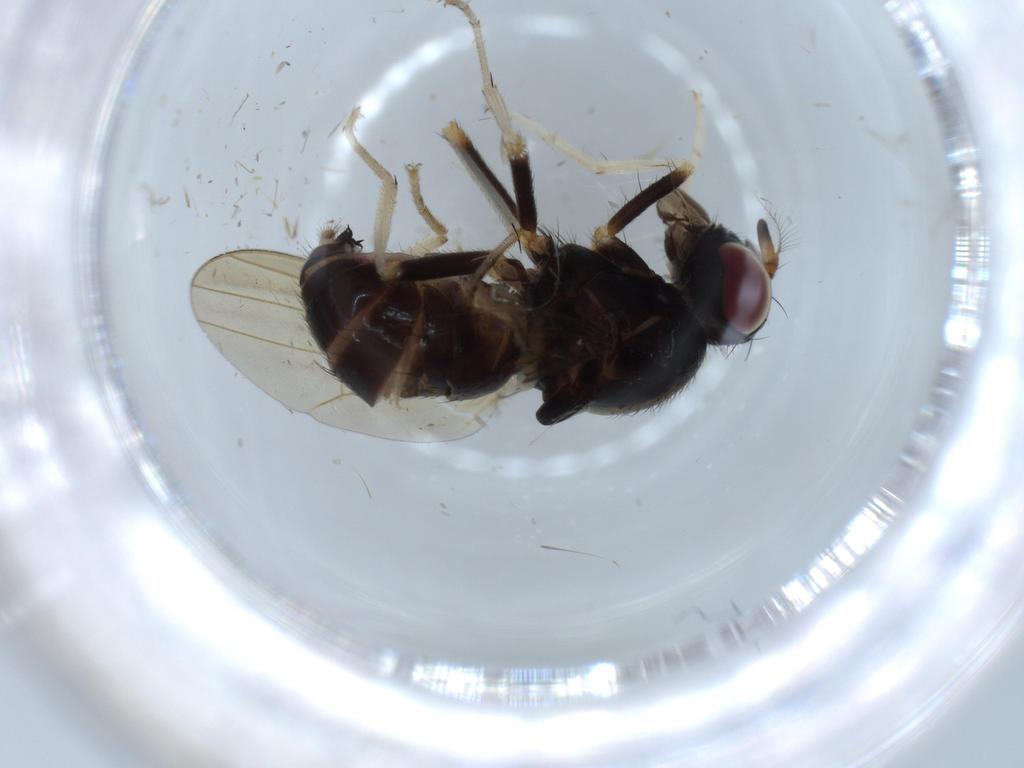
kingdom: Animalia
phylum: Arthropoda
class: Insecta
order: Diptera
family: Lauxaniidae
